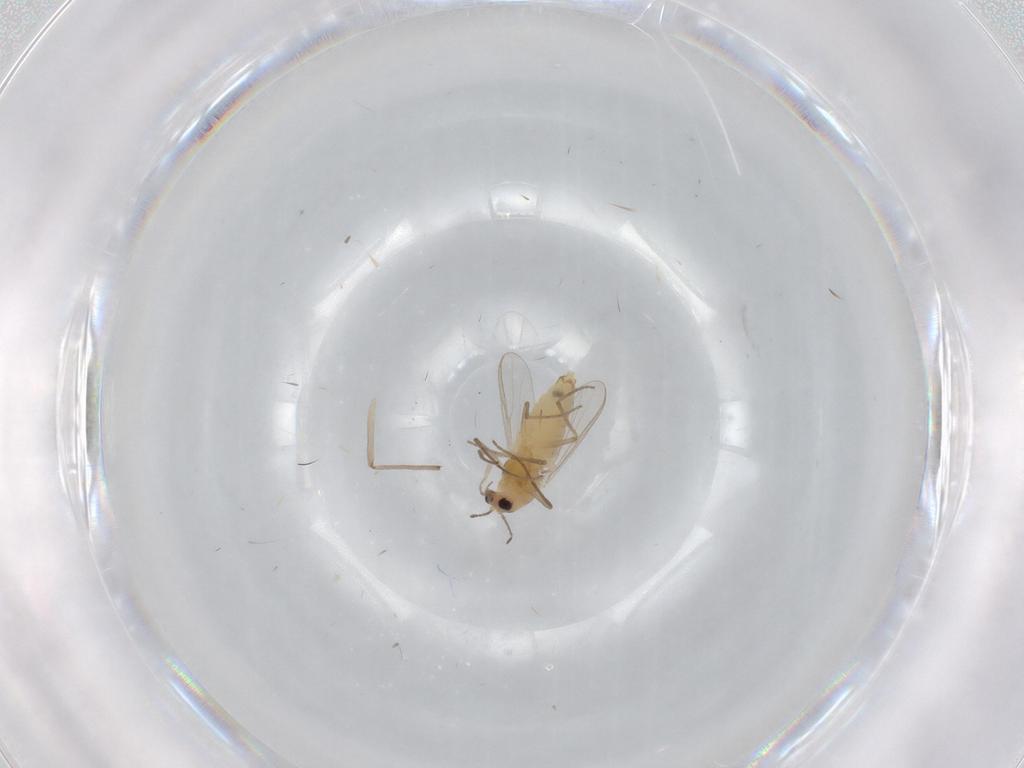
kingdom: Animalia
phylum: Arthropoda
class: Insecta
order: Diptera
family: Chironomidae
